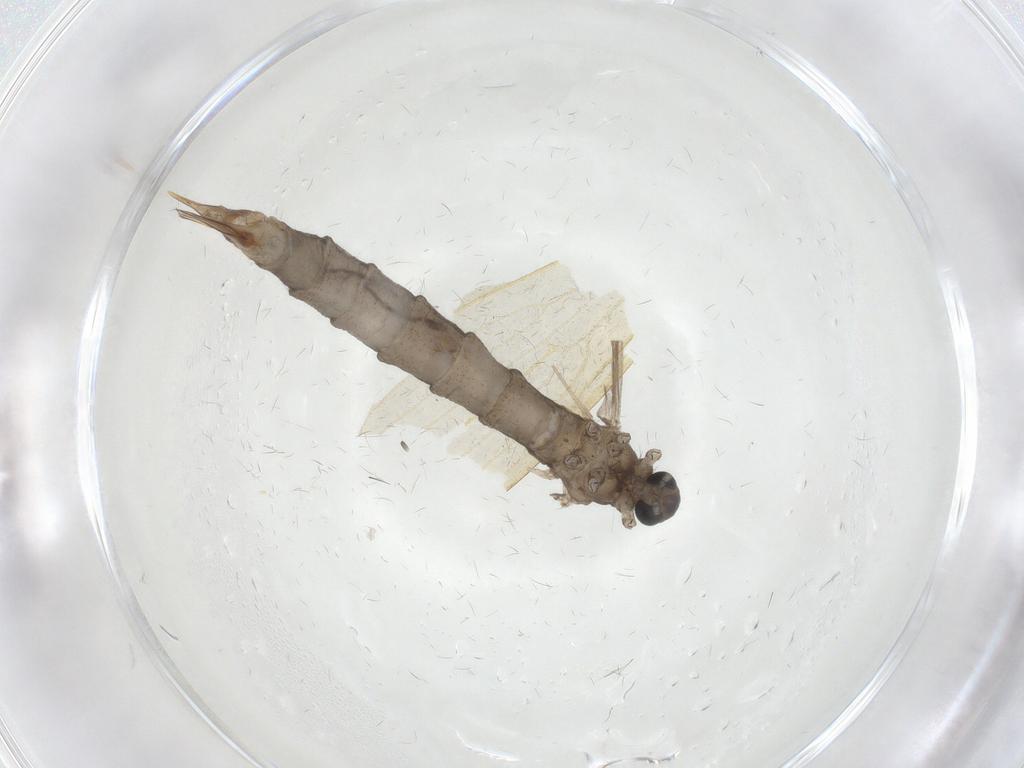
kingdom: Animalia
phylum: Arthropoda
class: Insecta
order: Diptera
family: Limoniidae
